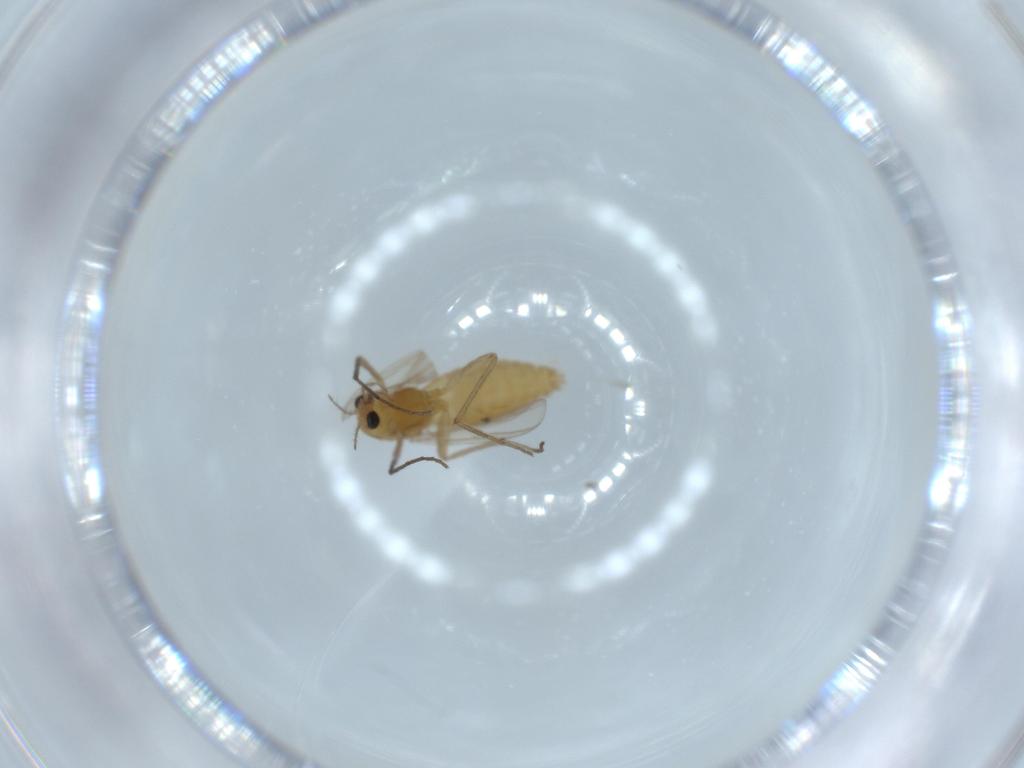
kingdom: Animalia
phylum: Arthropoda
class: Insecta
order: Diptera
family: Chironomidae
